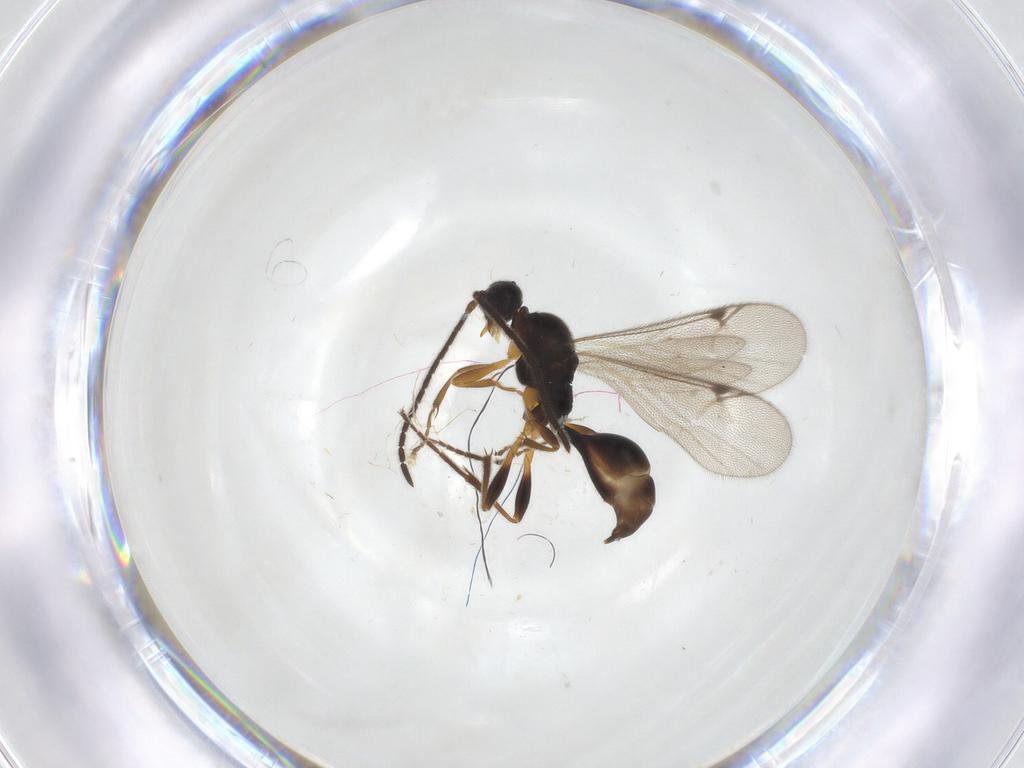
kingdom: Animalia
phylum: Arthropoda
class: Insecta
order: Hymenoptera
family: Proctotrupidae
